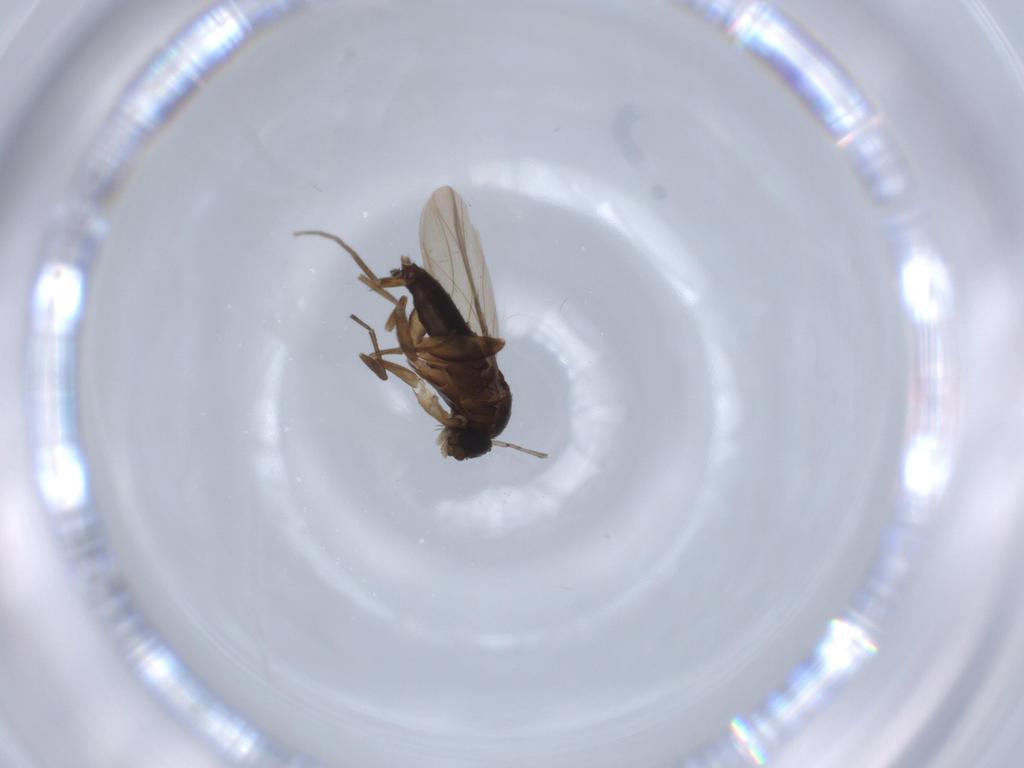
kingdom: Animalia
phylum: Arthropoda
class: Insecta
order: Diptera
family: Phoridae
